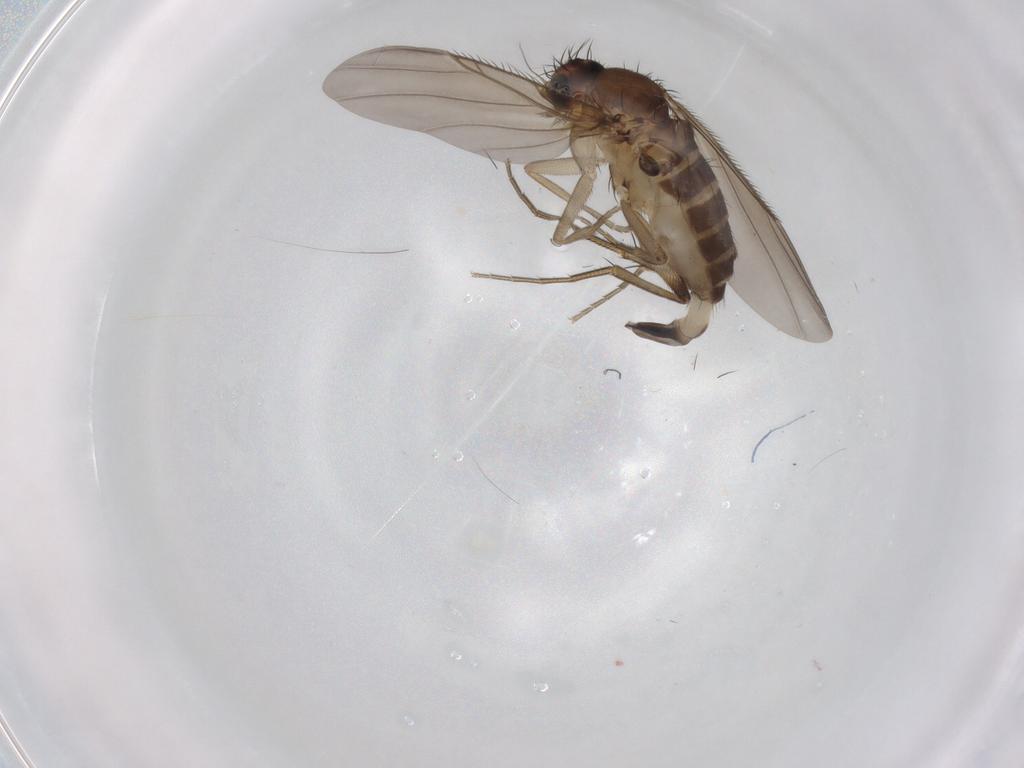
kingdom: Animalia
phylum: Arthropoda
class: Insecta
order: Diptera
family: Phoridae
